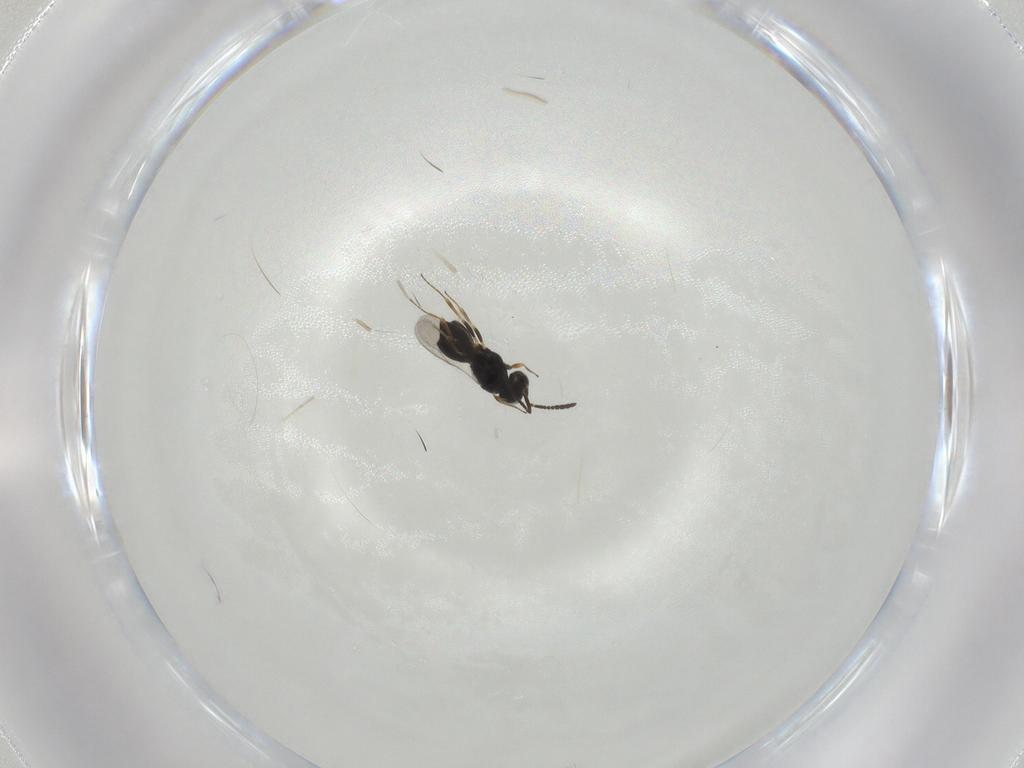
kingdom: Animalia
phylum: Arthropoda
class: Insecta
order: Hymenoptera
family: Scelionidae
